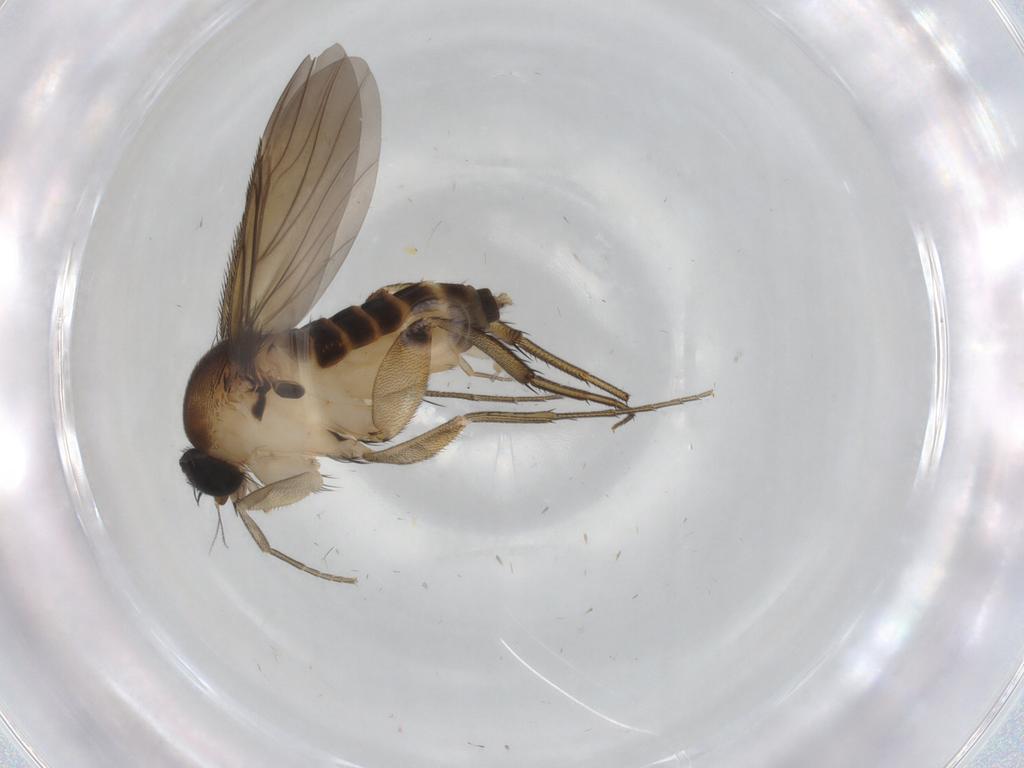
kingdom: Animalia
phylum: Arthropoda
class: Insecta
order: Diptera
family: Phoridae
